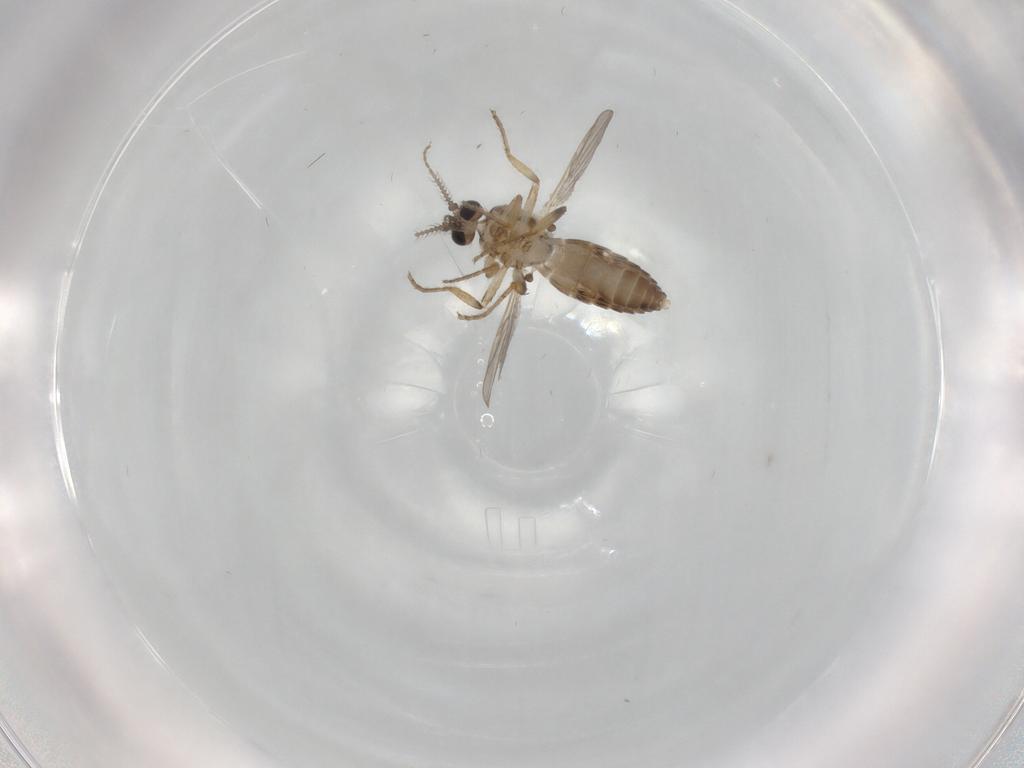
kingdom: Animalia
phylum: Arthropoda
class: Insecta
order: Diptera
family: Ceratopogonidae
